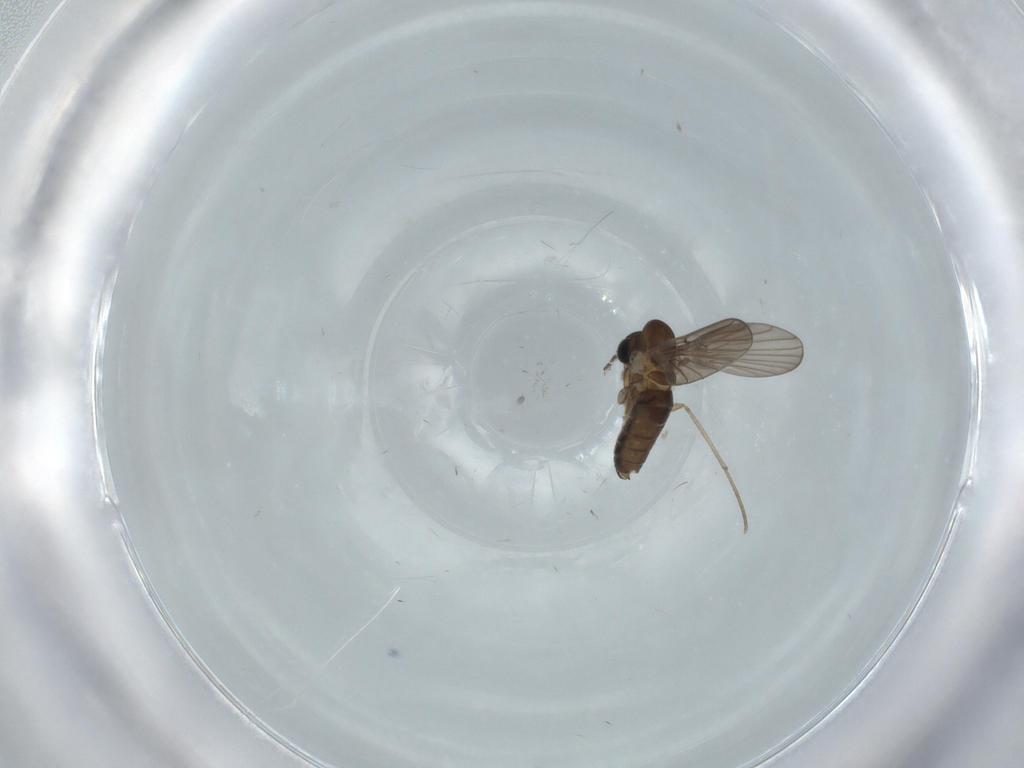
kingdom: Animalia
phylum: Arthropoda
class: Insecta
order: Diptera
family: Psychodidae
